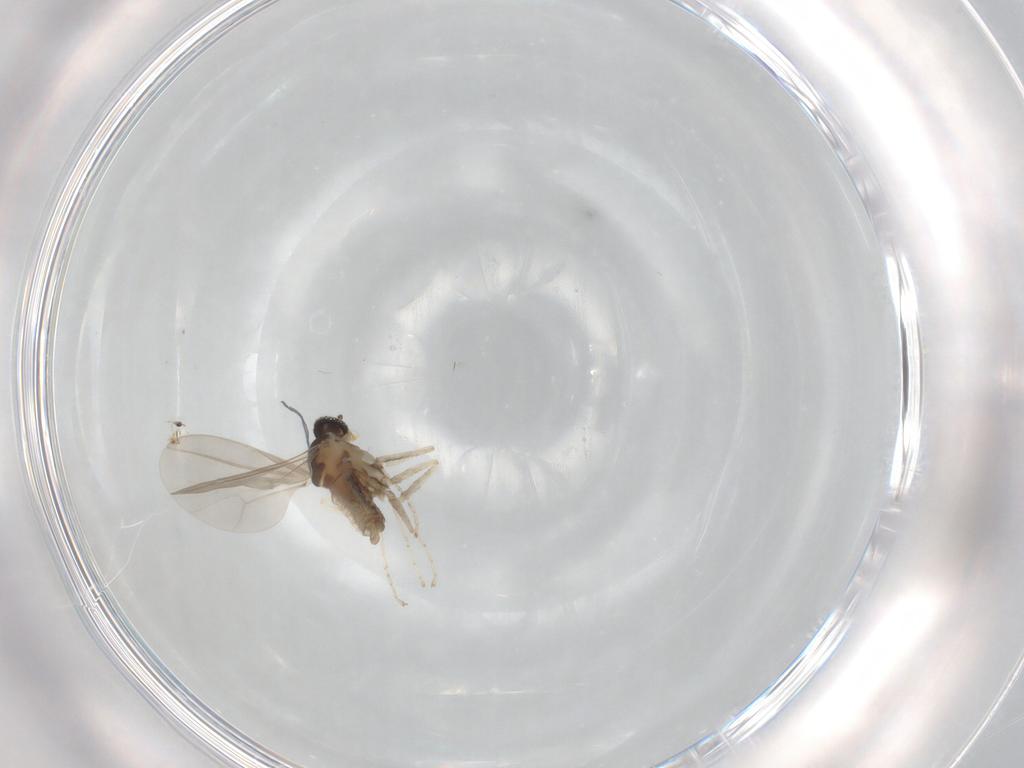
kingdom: Animalia
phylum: Arthropoda
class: Insecta
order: Diptera
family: Cecidomyiidae
